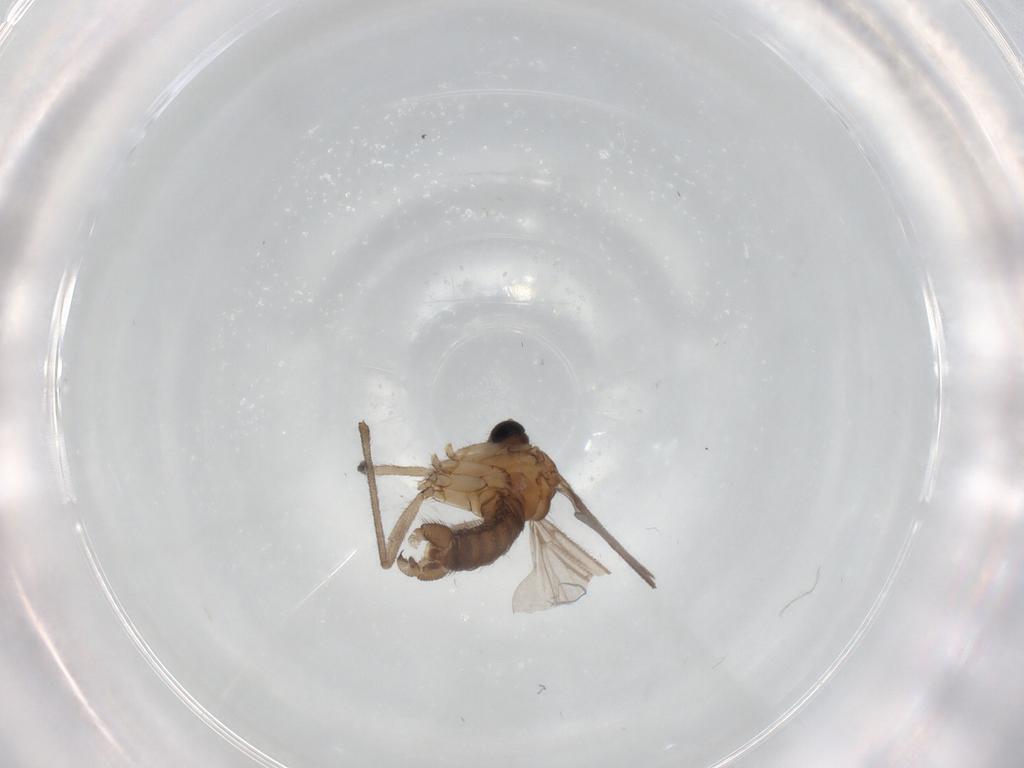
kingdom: Animalia
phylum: Arthropoda
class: Insecta
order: Diptera
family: Sciaridae
